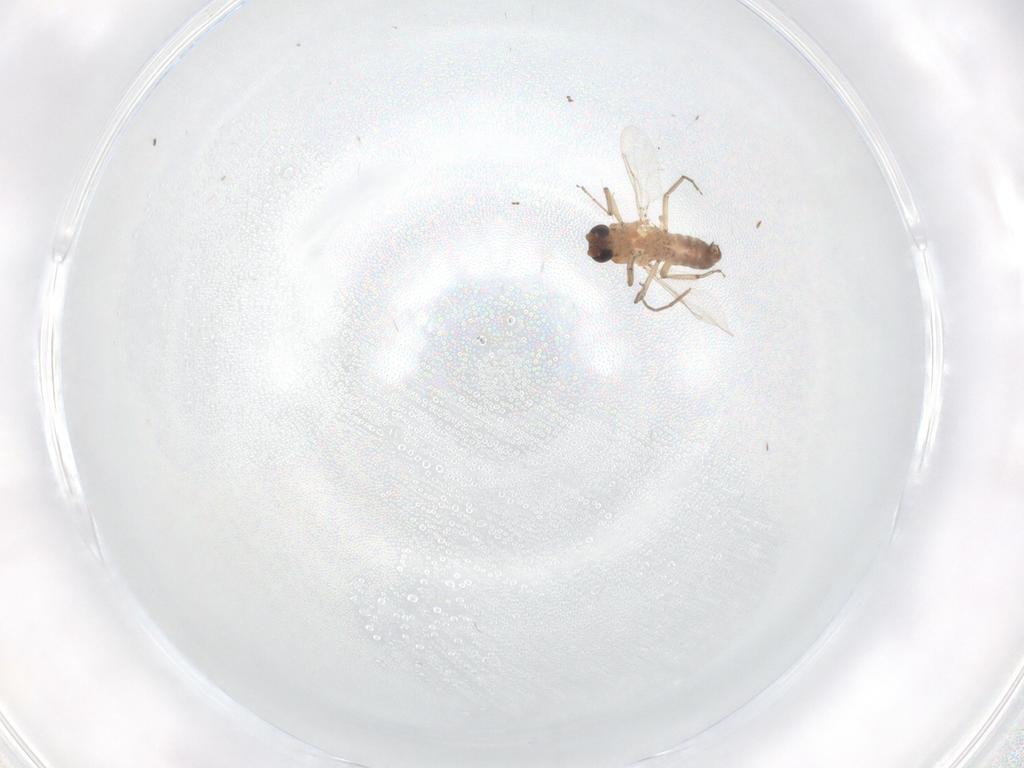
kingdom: Animalia
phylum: Arthropoda
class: Insecta
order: Diptera
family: Ceratopogonidae
